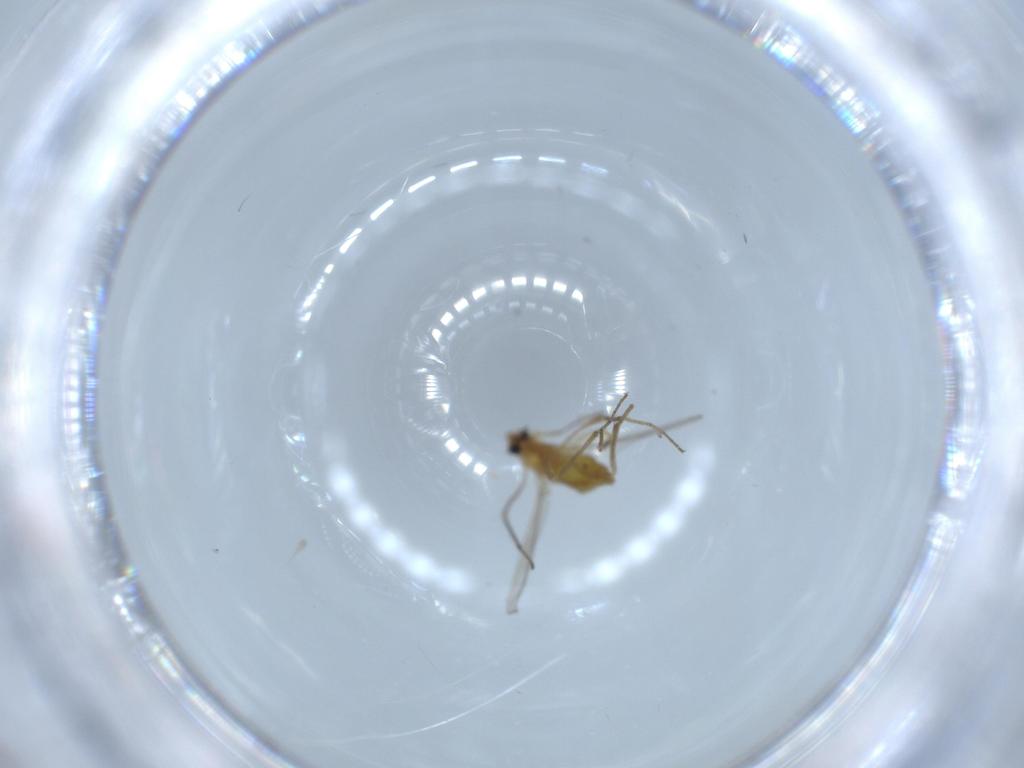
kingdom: Animalia
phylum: Arthropoda
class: Insecta
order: Diptera
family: Chironomidae
